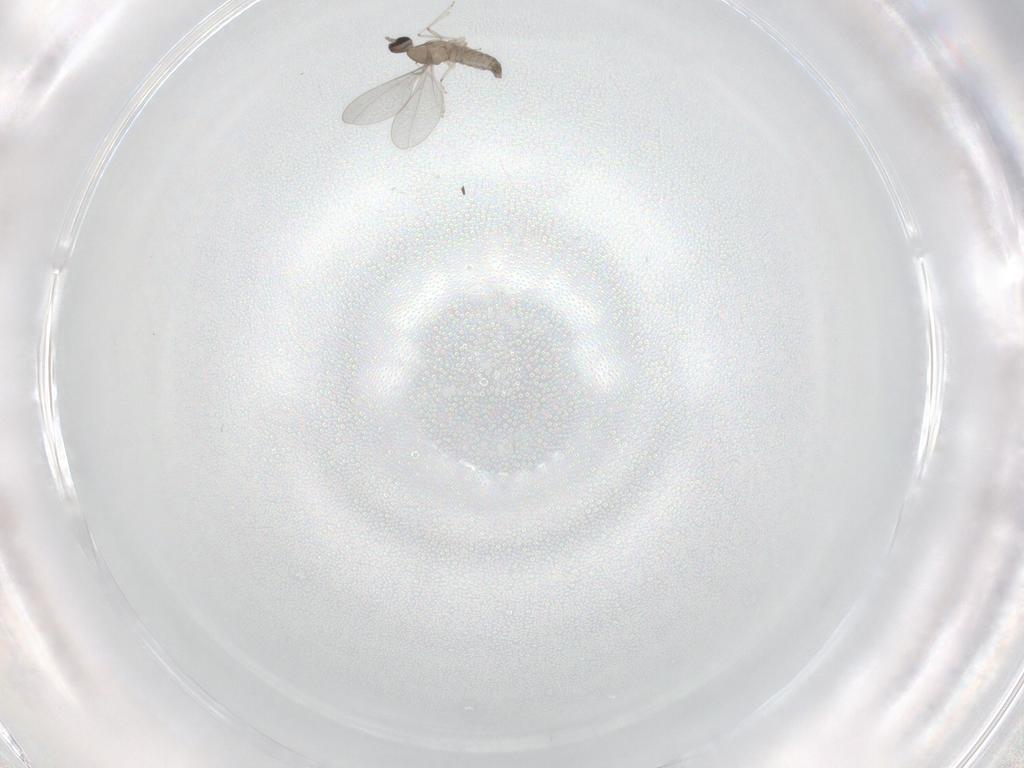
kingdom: Animalia
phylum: Arthropoda
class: Insecta
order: Diptera
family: Cecidomyiidae
